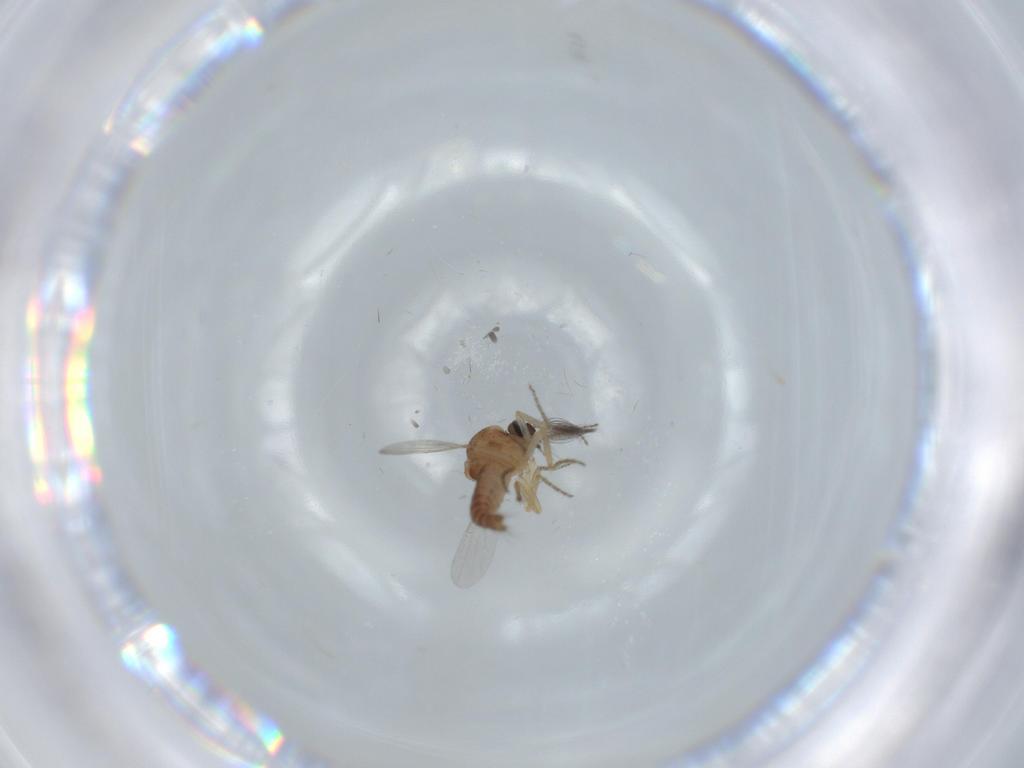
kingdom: Animalia
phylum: Arthropoda
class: Insecta
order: Diptera
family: Ceratopogonidae
